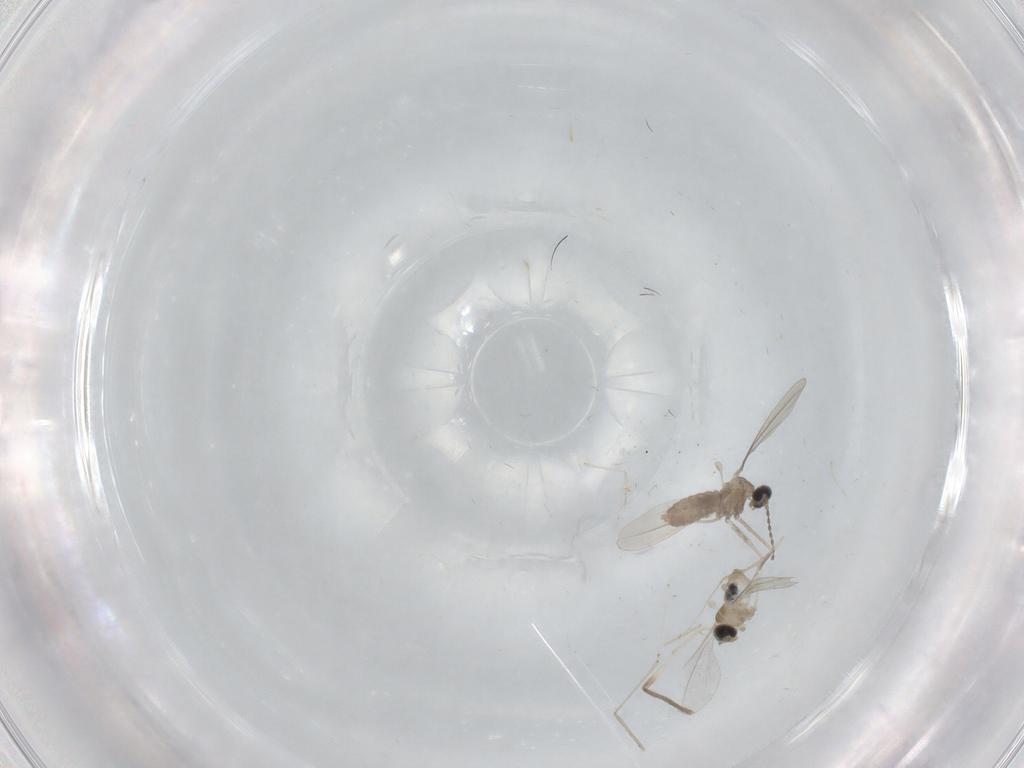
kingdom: Animalia
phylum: Arthropoda
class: Insecta
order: Diptera
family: Cecidomyiidae
